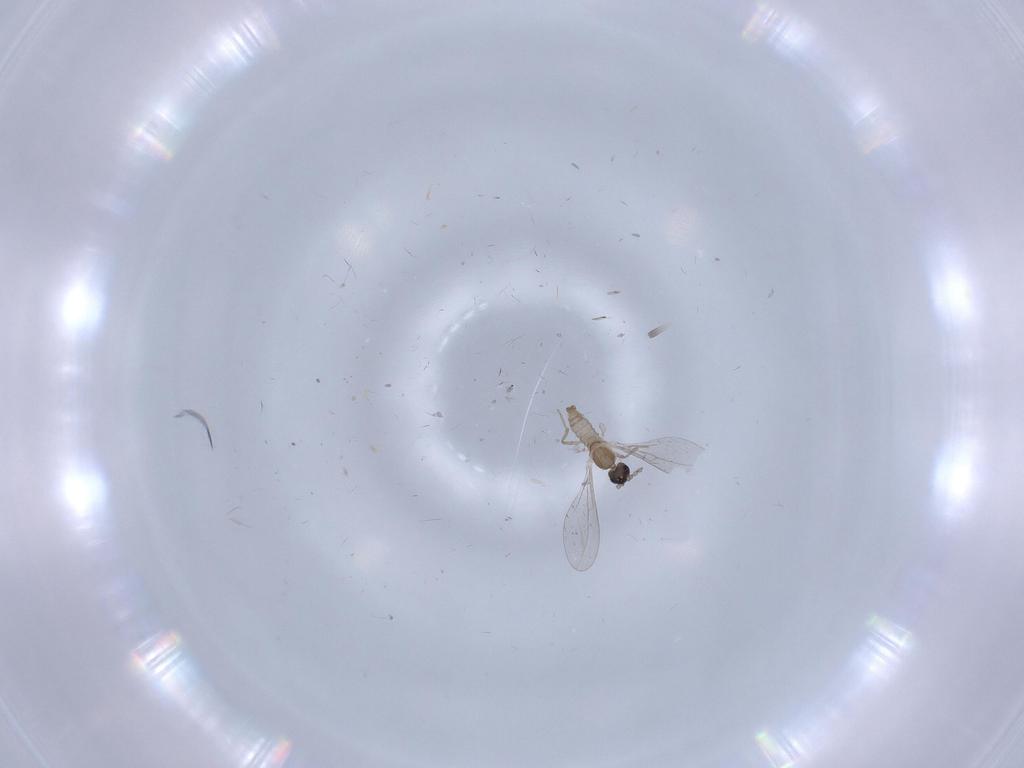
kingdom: Animalia
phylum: Arthropoda
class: Insecta
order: Diptera
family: Cecidomyiidae
